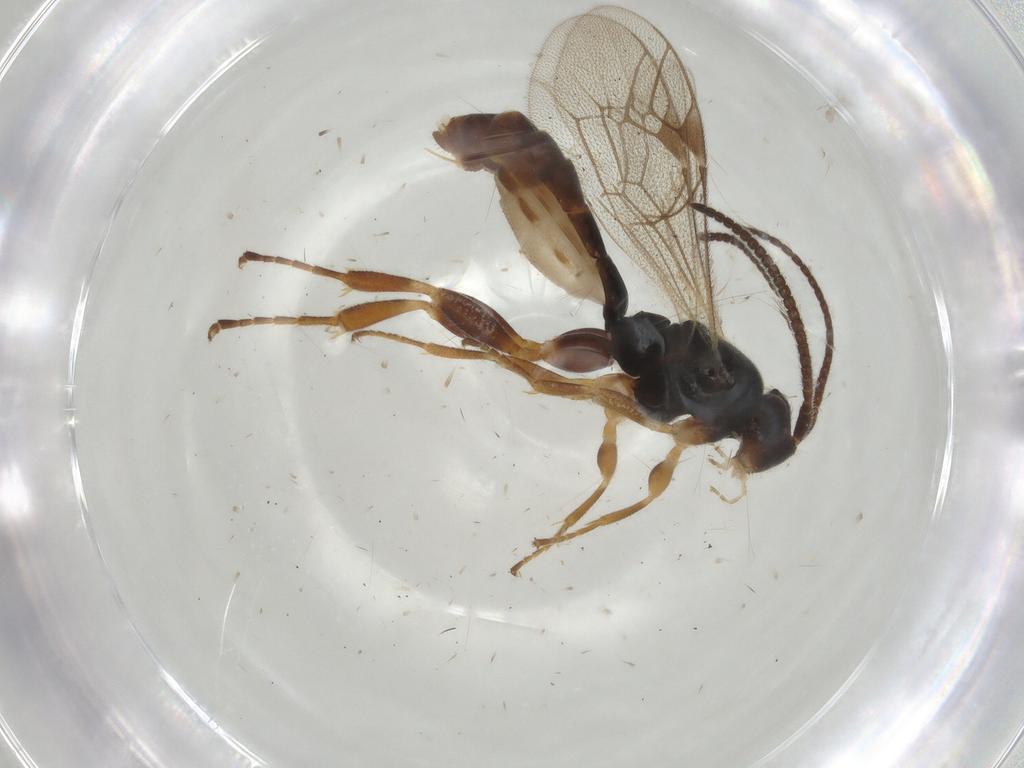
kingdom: Animalia
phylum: Arthropoda
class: Insecta
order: Hymenoptera
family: Ichneumonidae
